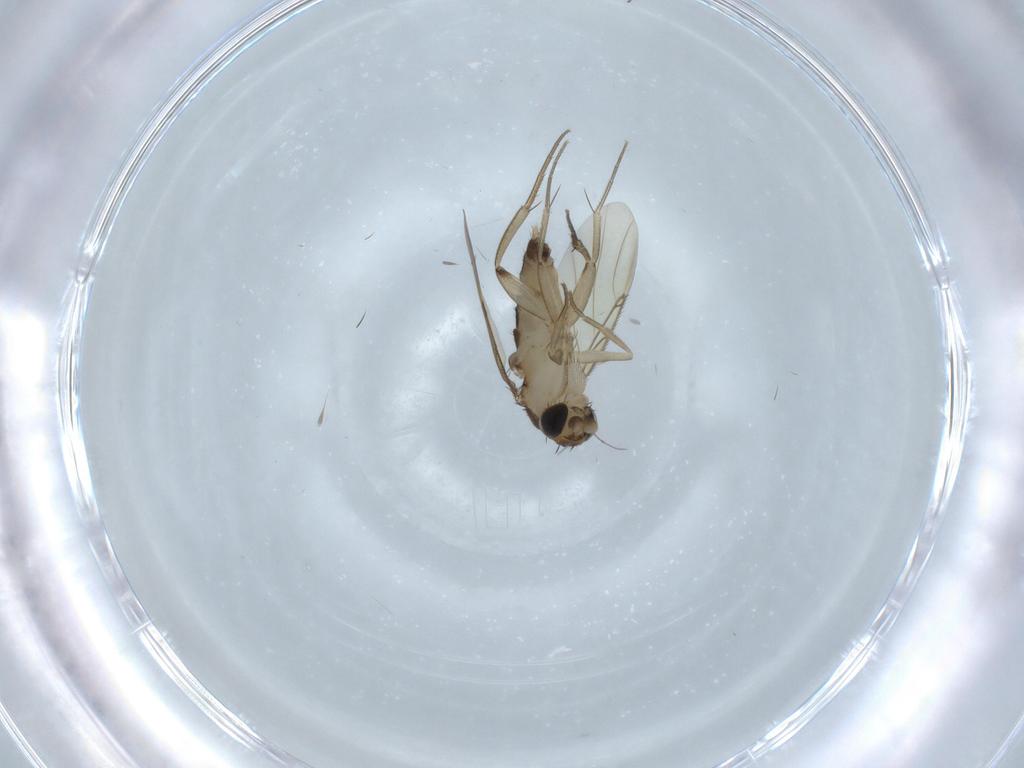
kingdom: Animalia
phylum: Arthropoda
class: Insecta
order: Diptera
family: Phoridae
